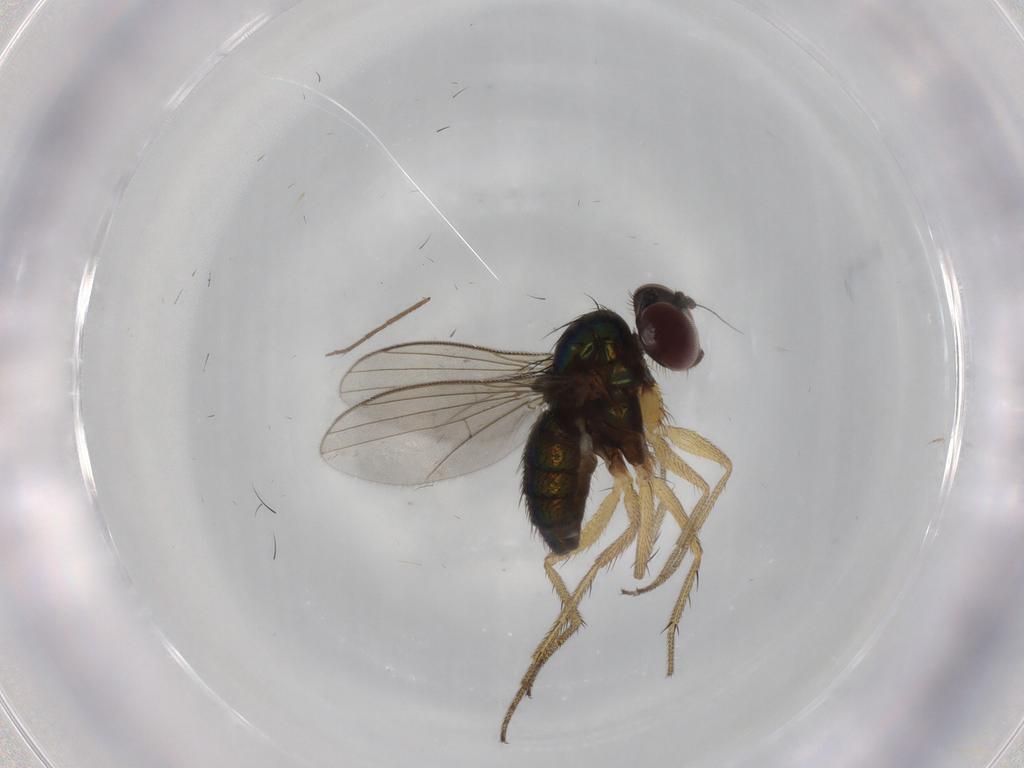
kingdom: Animalia
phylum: Arthropoda
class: Insecta
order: Diptera
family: Dolichopodidae
